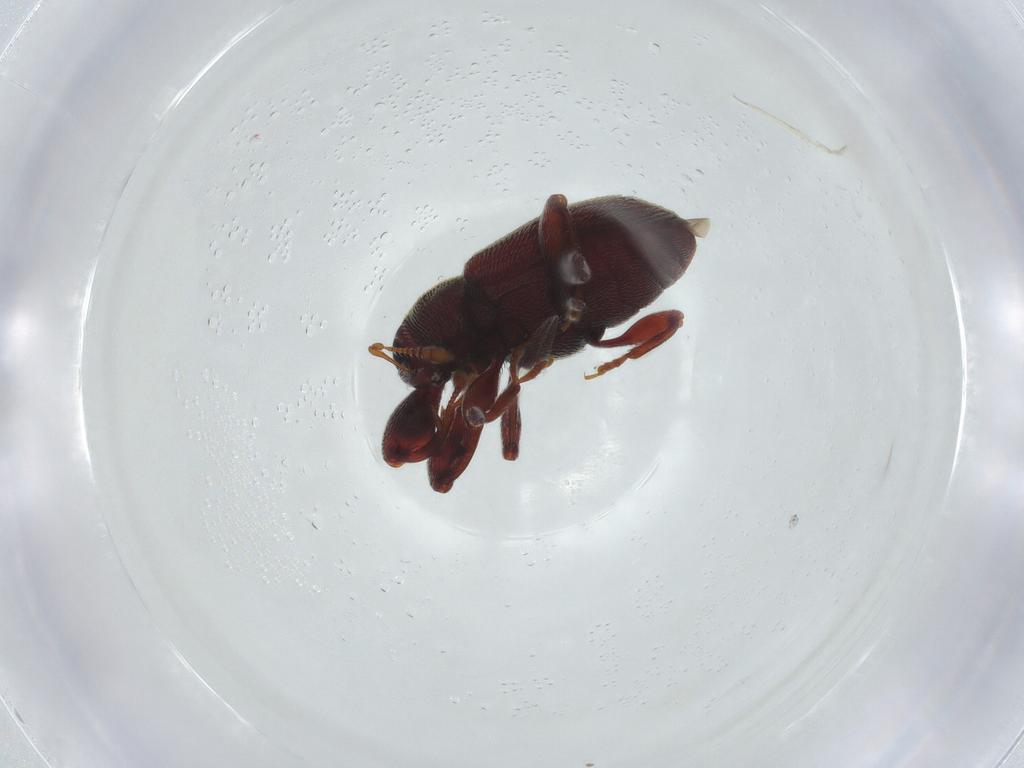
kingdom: Animalia
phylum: Arthropoda
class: Insecta
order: Coleoptera
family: Curculionidae
